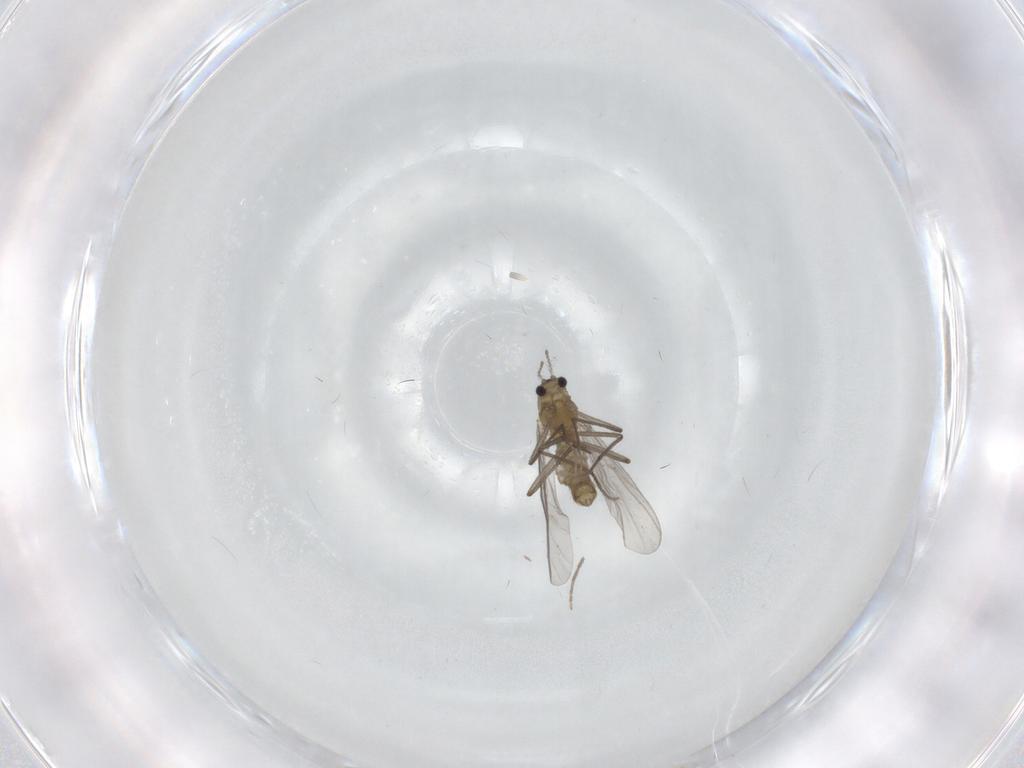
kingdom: Animalia
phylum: Arthropoda
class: Insecta
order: Diptera
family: Chironomidae
